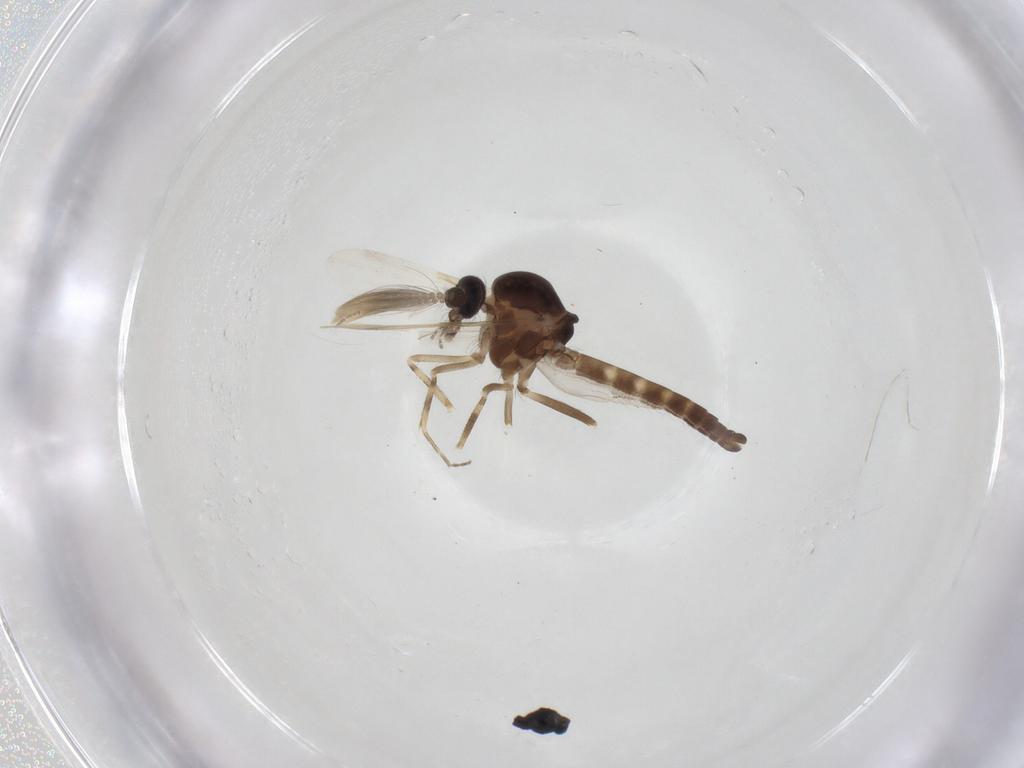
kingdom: Animalia
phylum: Arthropoda
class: Insecta
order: Diptera
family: Ceratopogonidae
